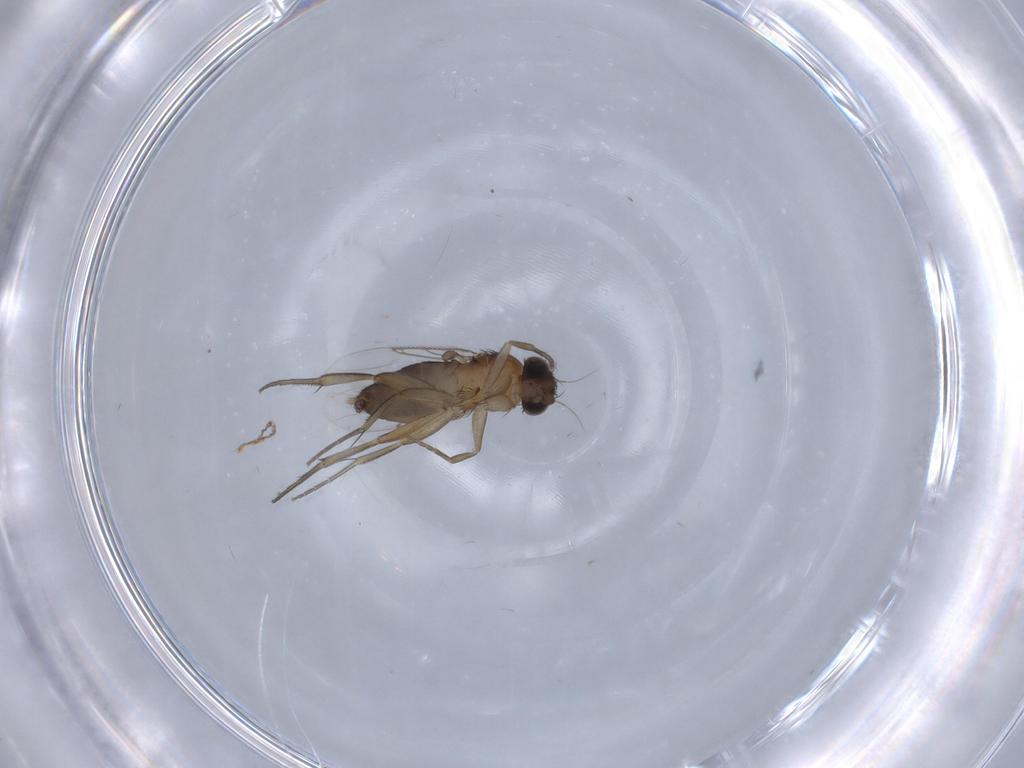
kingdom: Animalia
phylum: Arthropoda
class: Insecta
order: Diptera
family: Phoridae
